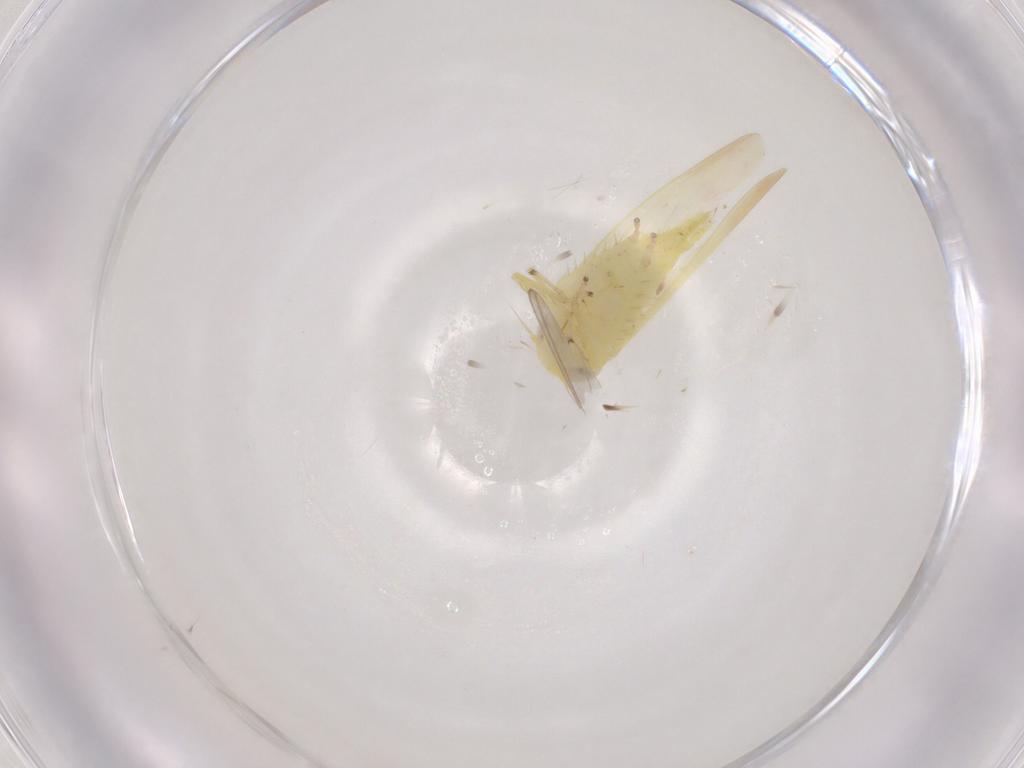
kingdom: Animalia
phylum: Arthropoda
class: Insecta
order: Hemiptera
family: Cicadellidae
